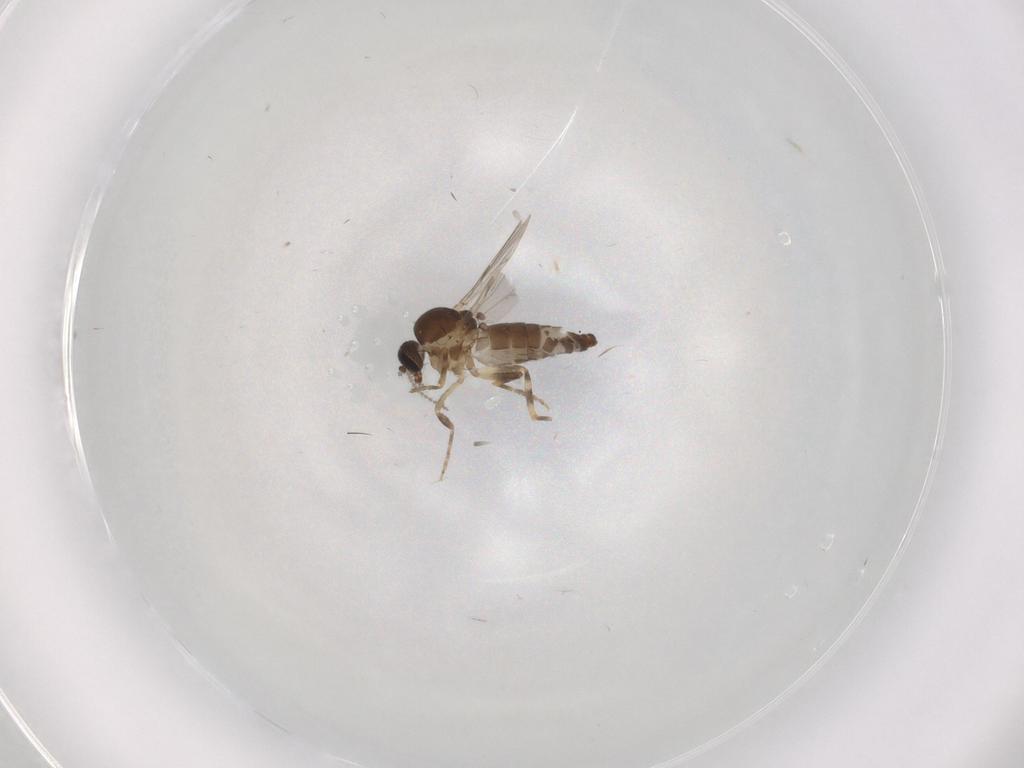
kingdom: Animalia
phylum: Arthropoda
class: Insecta
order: Diptera
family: Ceratopogonidae
